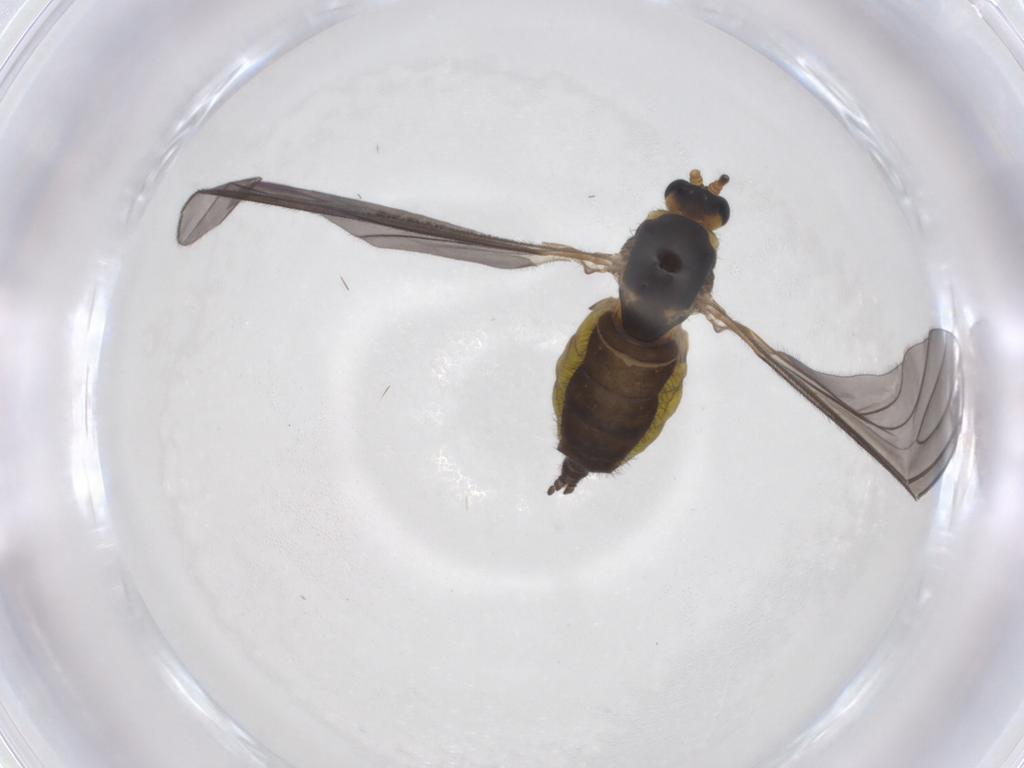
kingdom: Animalia
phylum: Arthropoda
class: Insecta
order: Diptera
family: Sciaridae
